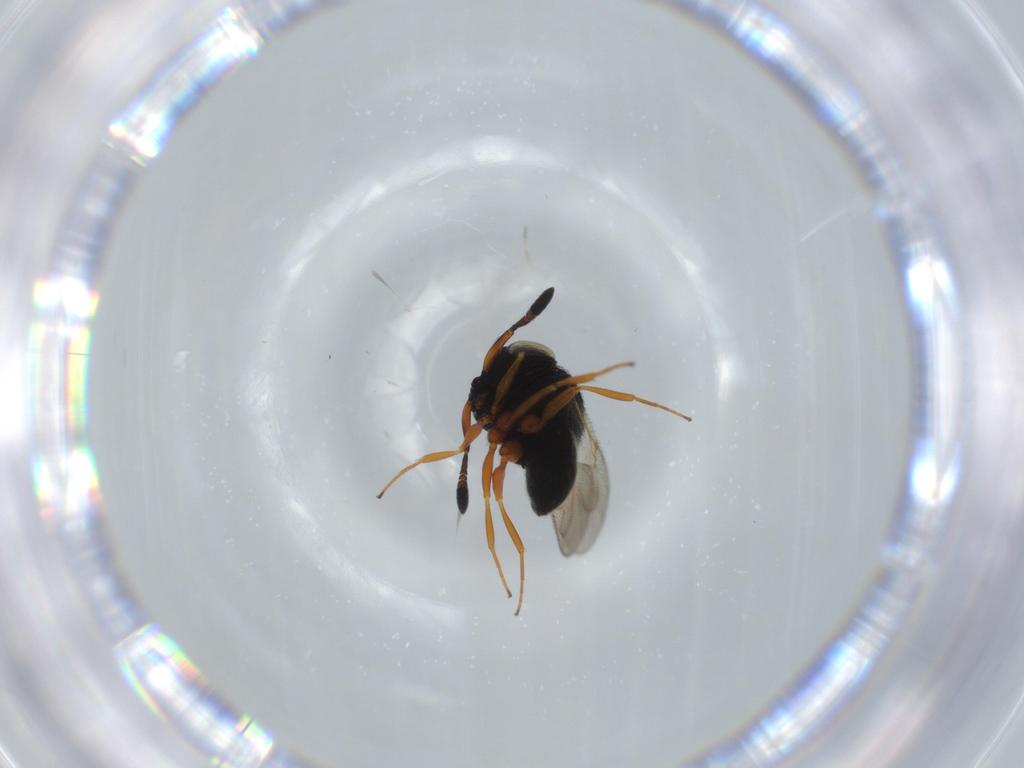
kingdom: Animalia
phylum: Arthropoda
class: Insecta
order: Hymenoptera
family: Scelionidae
